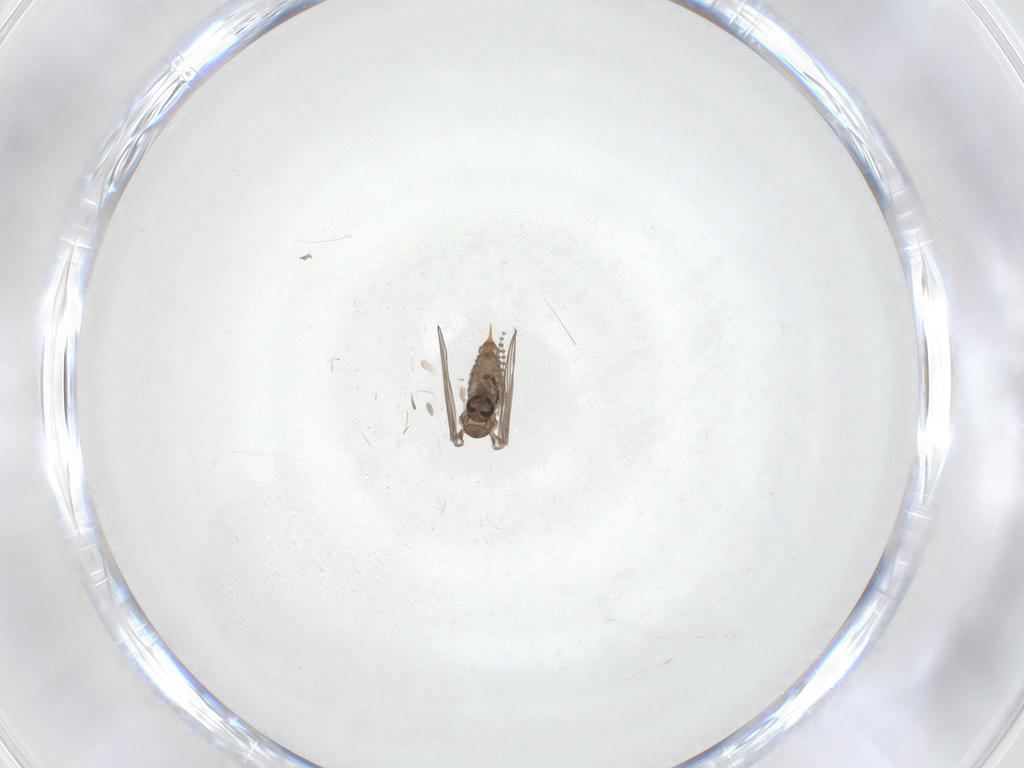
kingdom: Animalia
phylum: Arthropoda
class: Insecta
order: Diptera
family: Psychodidae
